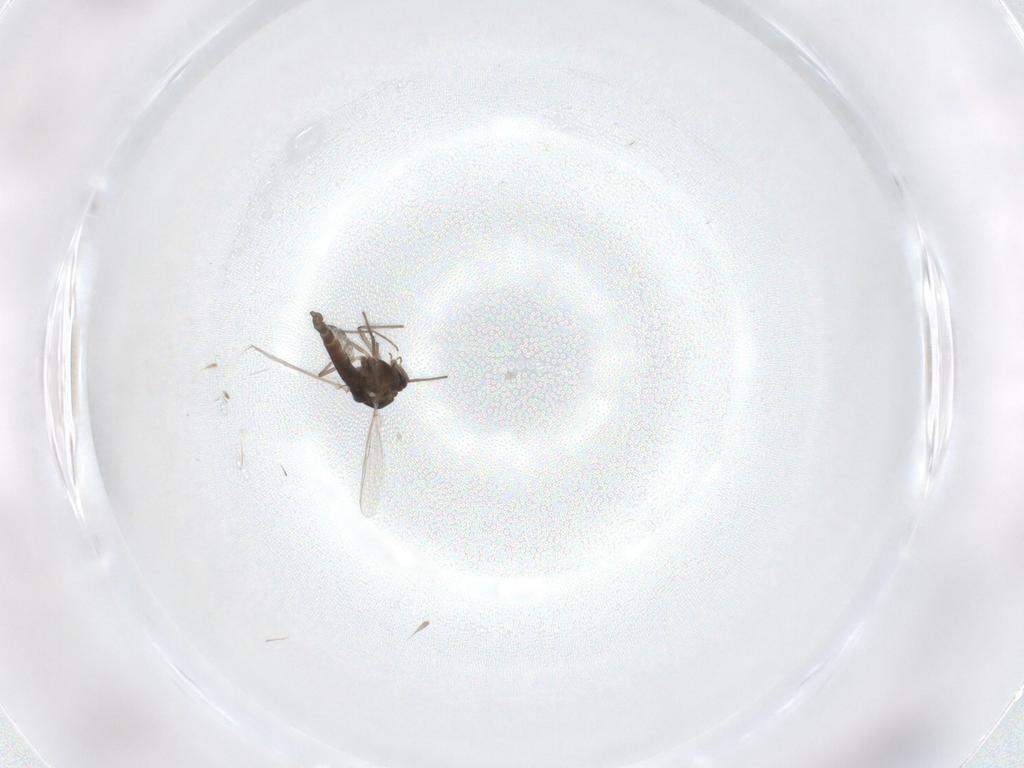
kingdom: Animalia
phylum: Arthropoda
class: Insecta
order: Diptera
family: Chironomidae
